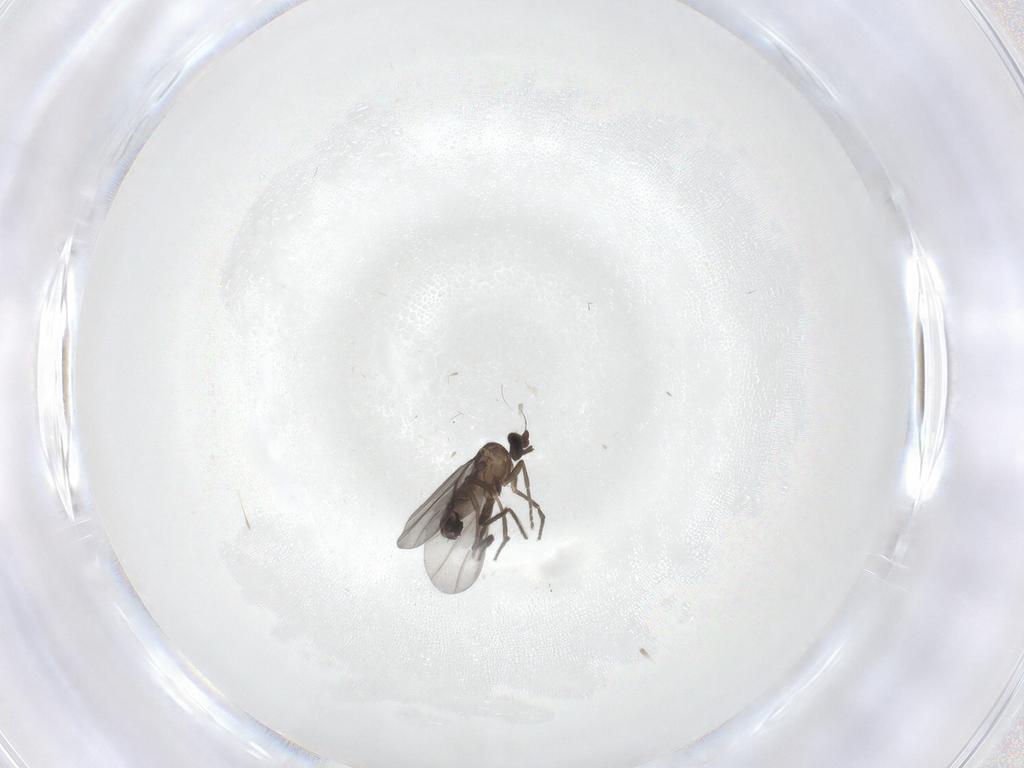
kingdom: Animalia
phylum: Arthropoda
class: Insecta
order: Diptera
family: Phoridae
